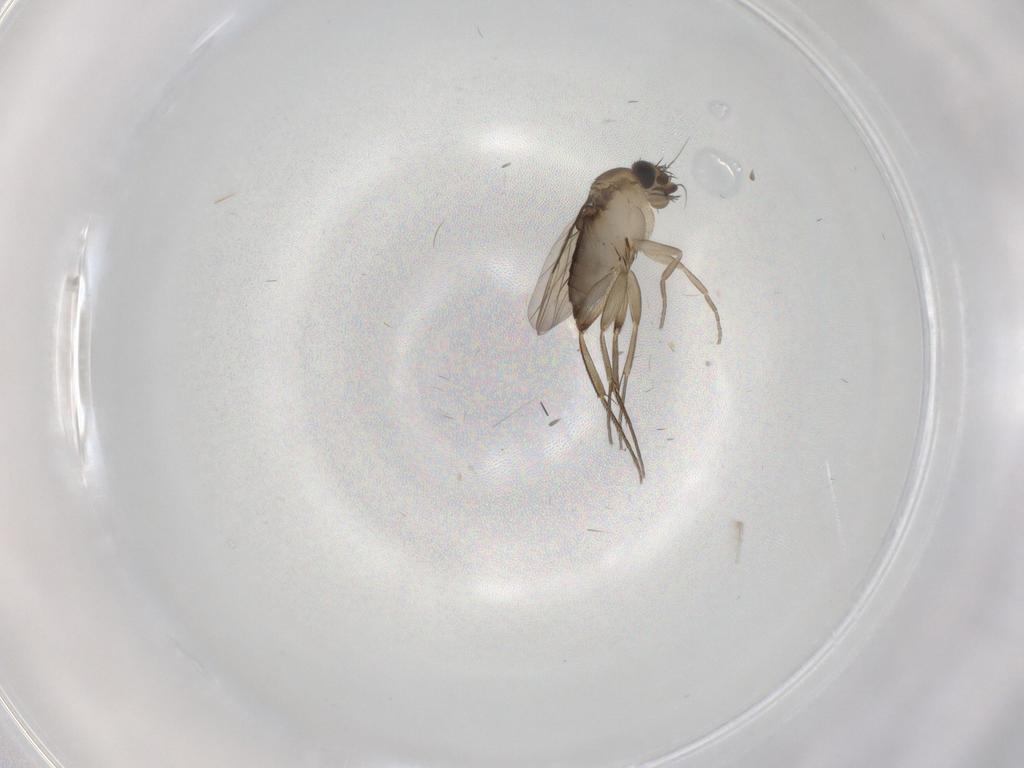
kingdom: Animalia
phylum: Arthropoda
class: Insecta
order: Diptera
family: Phoridae
